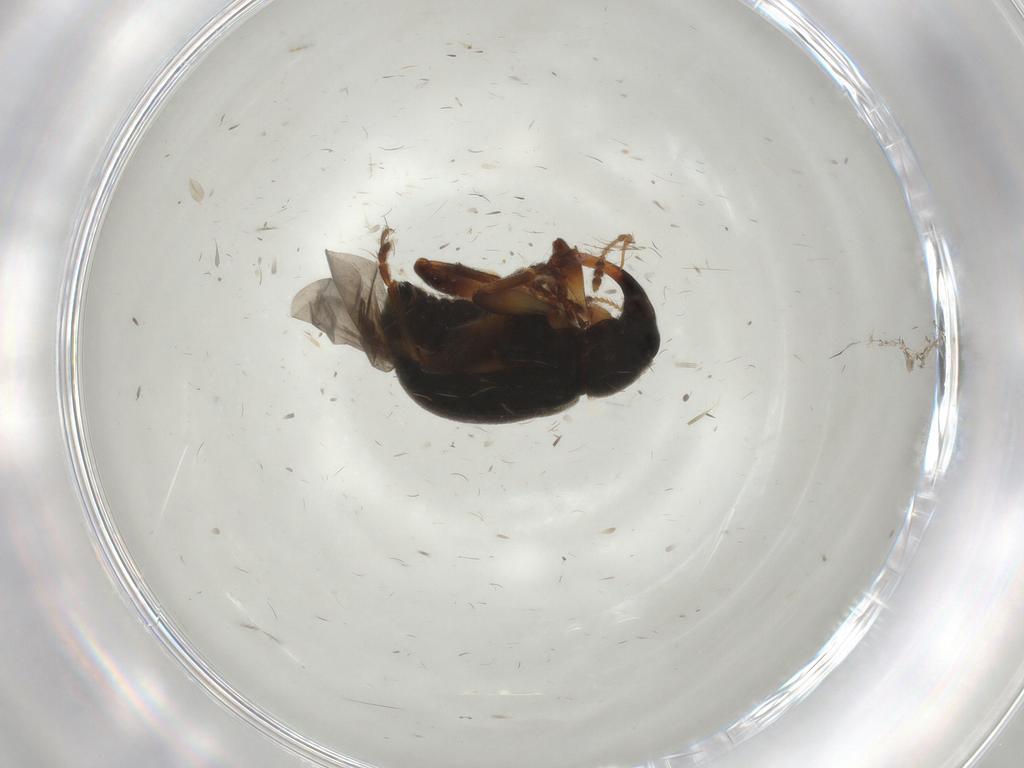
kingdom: Animalia
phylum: Arthropoda
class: Insecta
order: Coleoptera
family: Curculionidae
